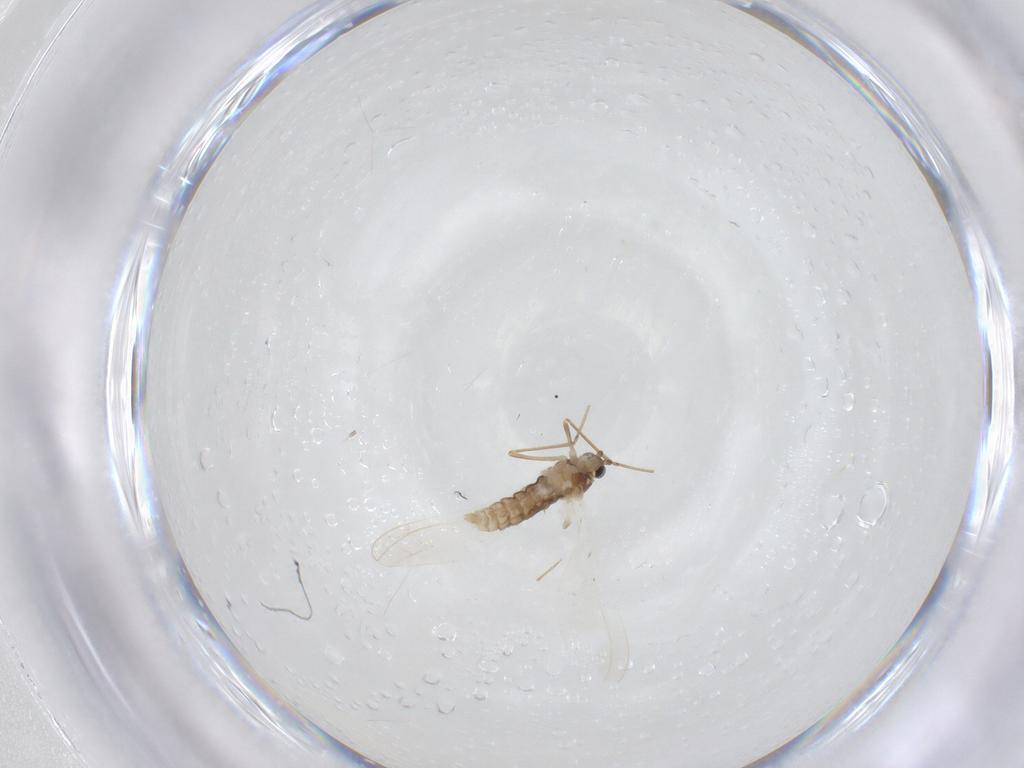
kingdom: Animalia
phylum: Arthropoda
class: Insecta
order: Diptera
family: Cecidomyiidae
